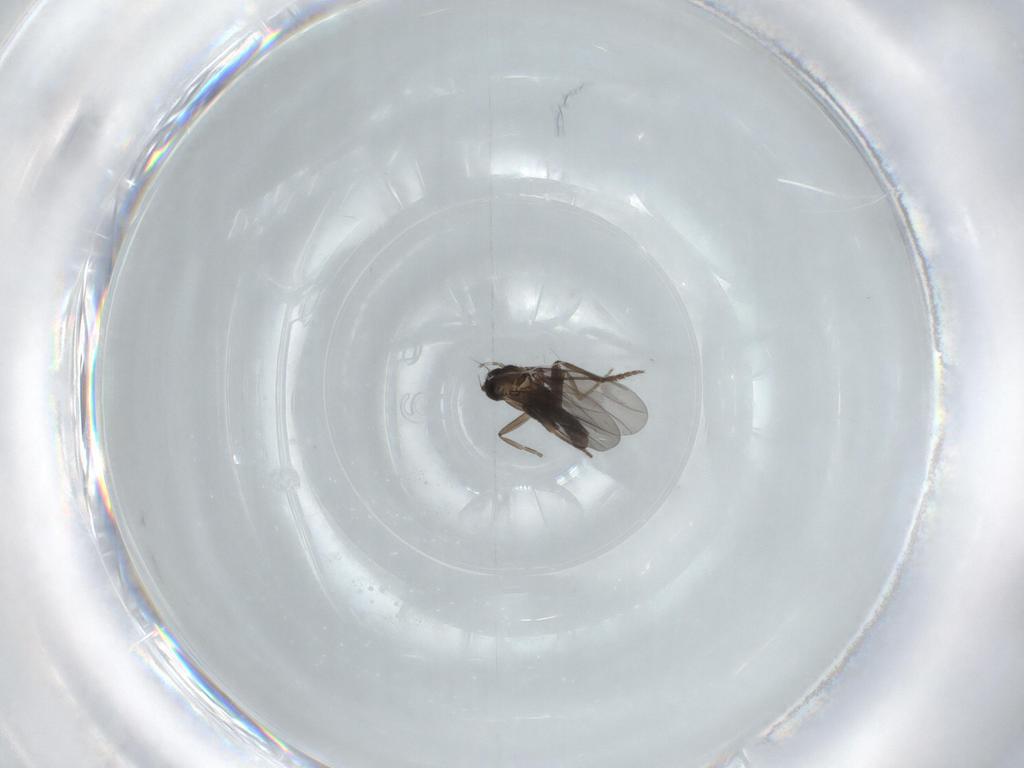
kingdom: Animalia
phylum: Arthropoda
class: Insecta
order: Diptera
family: Phoridae
